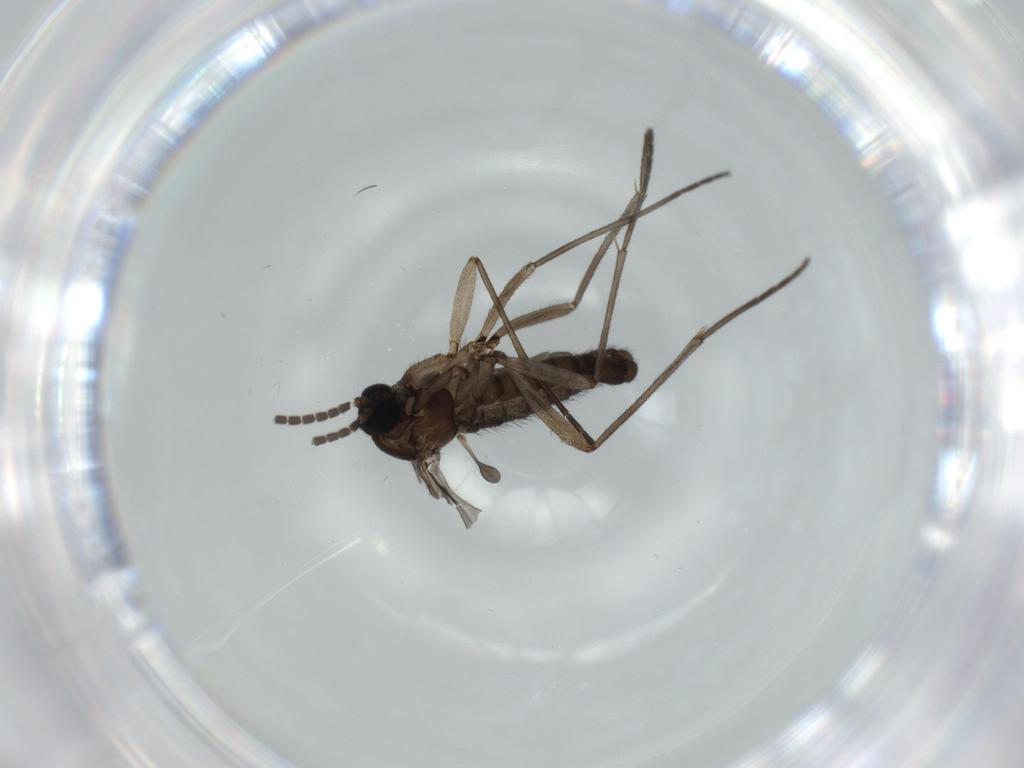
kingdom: Animalia
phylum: Arthropoda
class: Insecta
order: Diptera
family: Sciaridae
